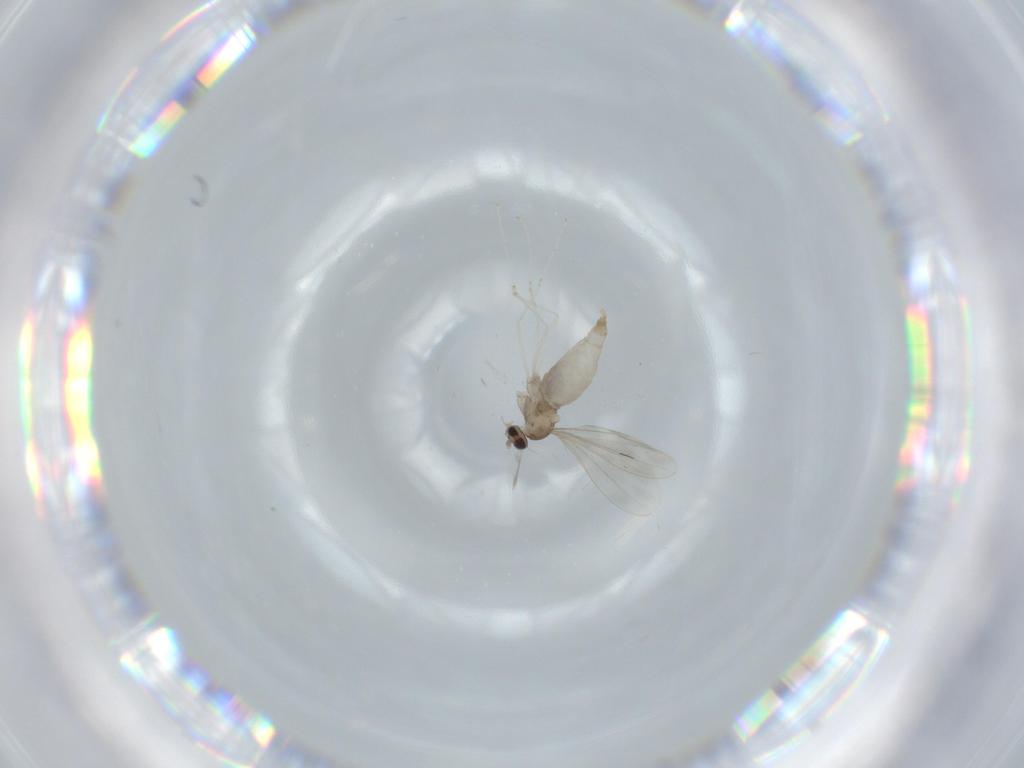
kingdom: Animalia
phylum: Arthropoda
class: Insecta
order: Diptera
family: Cecidomyiidae
